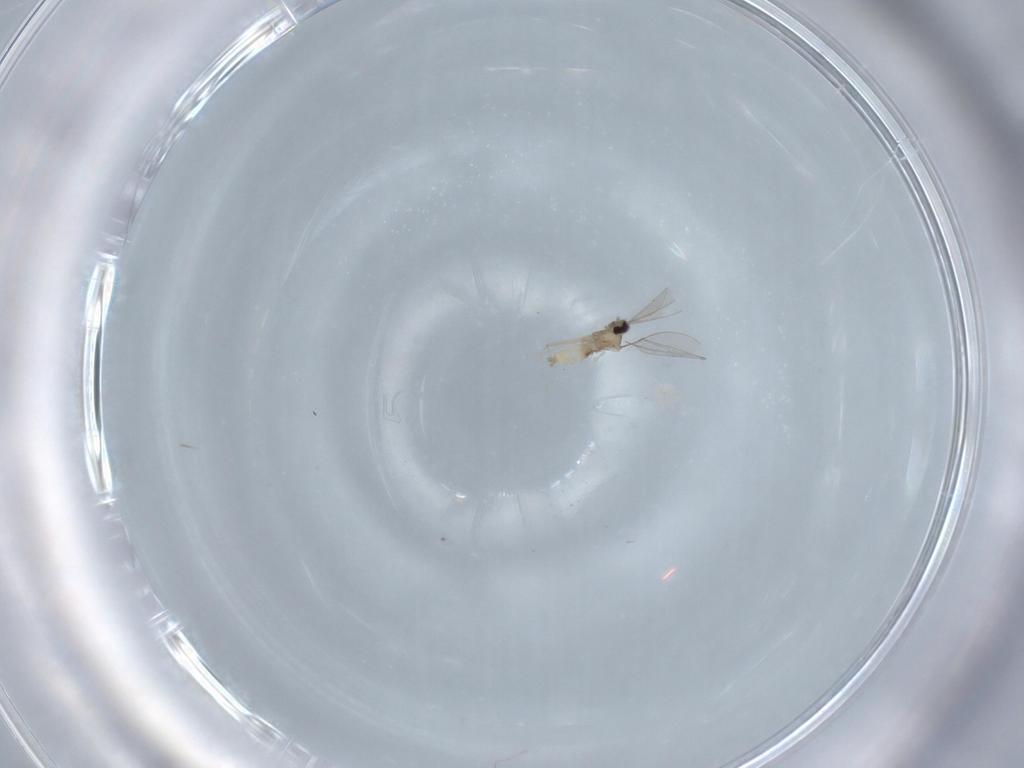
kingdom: Animalia
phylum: Arthropoda
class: Insecta
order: Diptera
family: Cecidomyiidae
